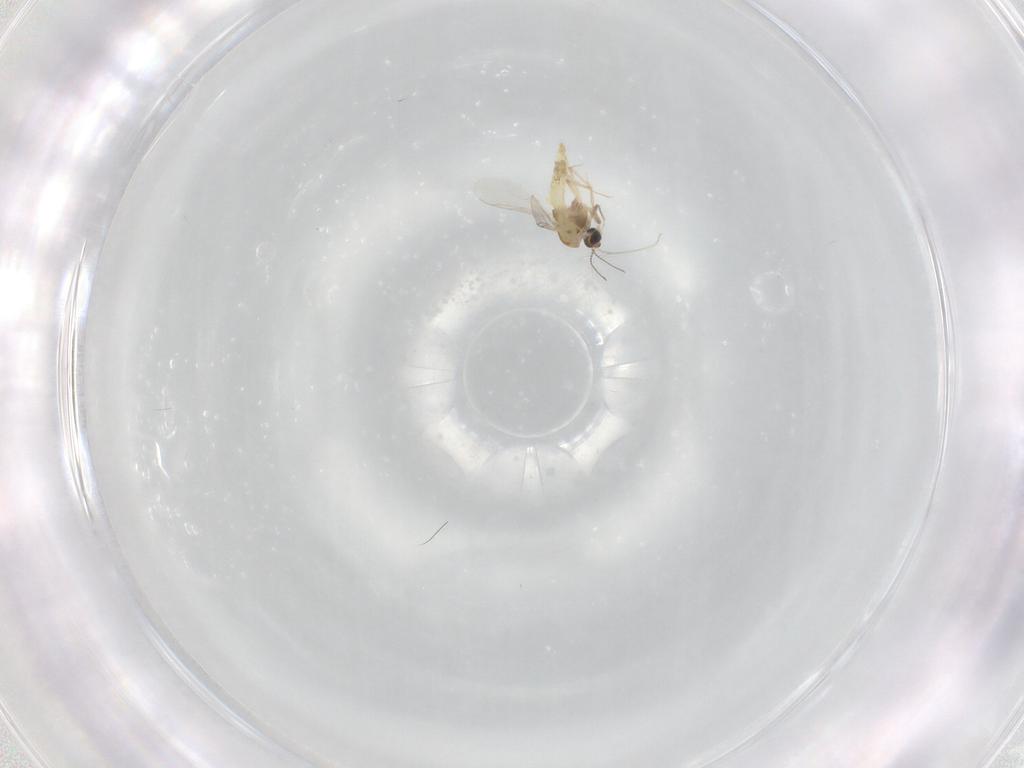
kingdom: Animalia
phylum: Arthropoda
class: Insecta
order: Diptera
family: Chironomidae
